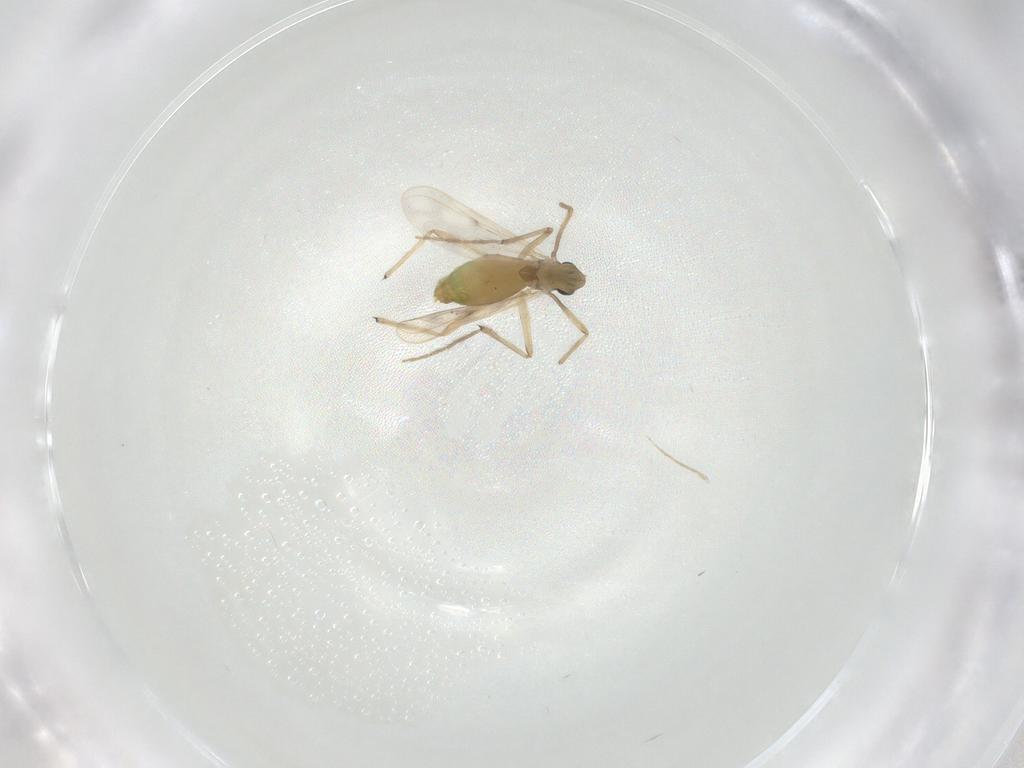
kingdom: Animalia
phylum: Arthropoda
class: Insecta
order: Diptera
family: Chironomidae
